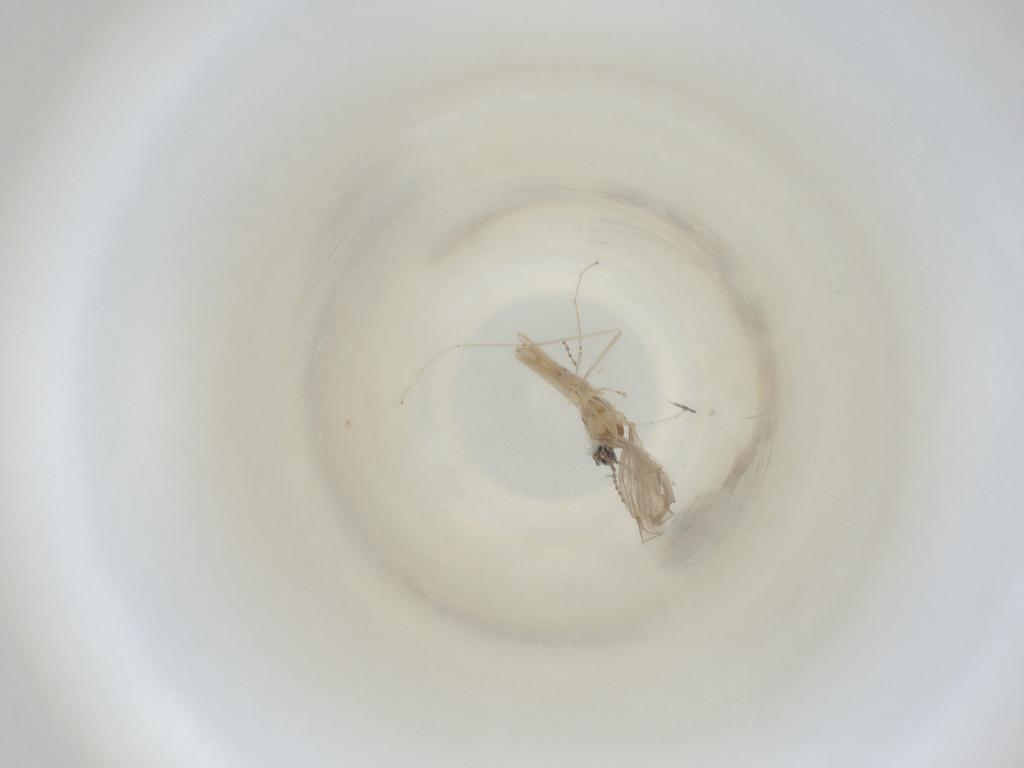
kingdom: Animalia
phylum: Arthropoda
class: Insecta
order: Diptera
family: Cecidomyiidae
